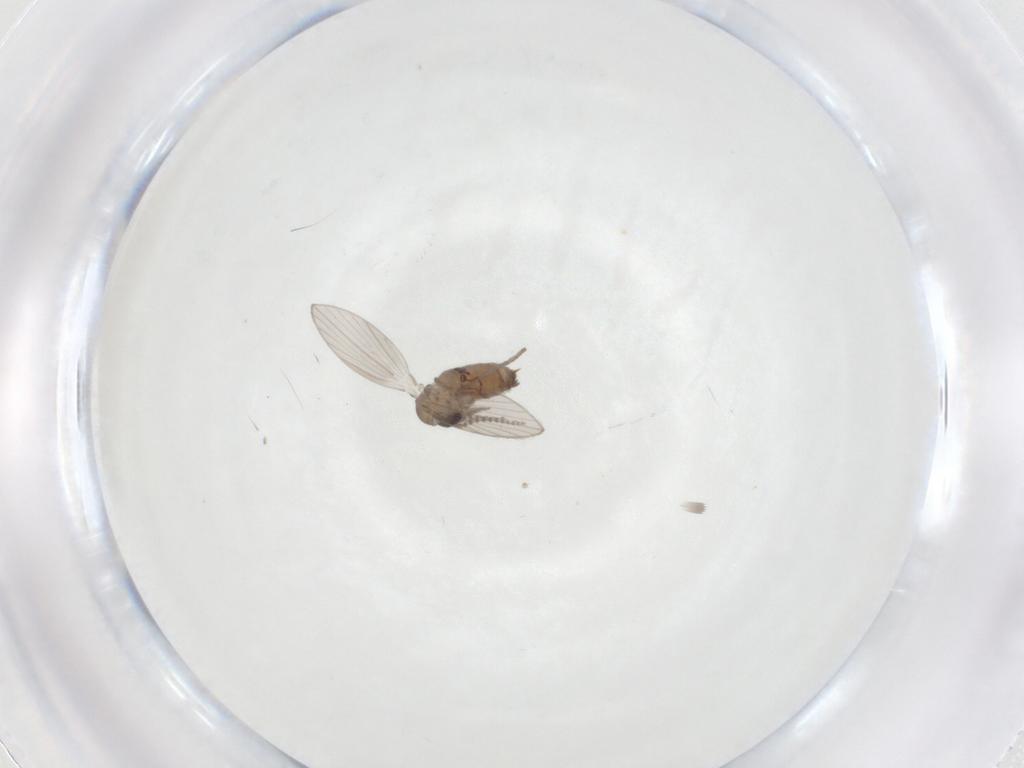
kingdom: Animalia
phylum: Arthropoda
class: Insecta
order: Diptera
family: Psychodidae
